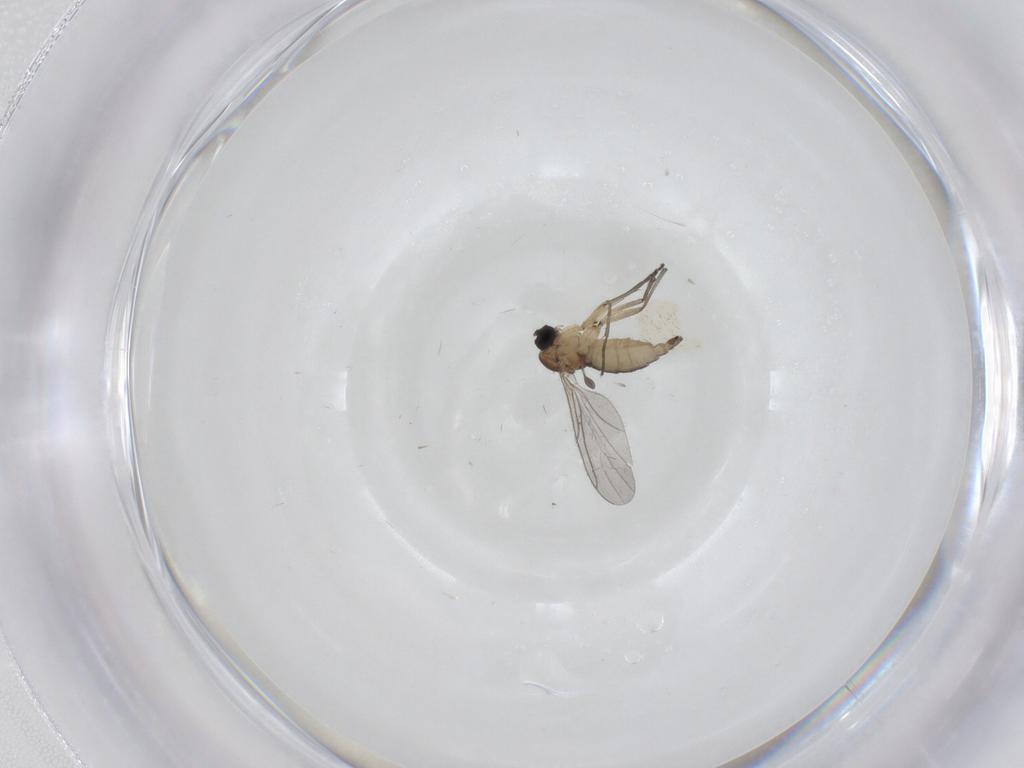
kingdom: Animalia
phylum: Arthropoda
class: Insecta
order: Diptera
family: Sciaridae
